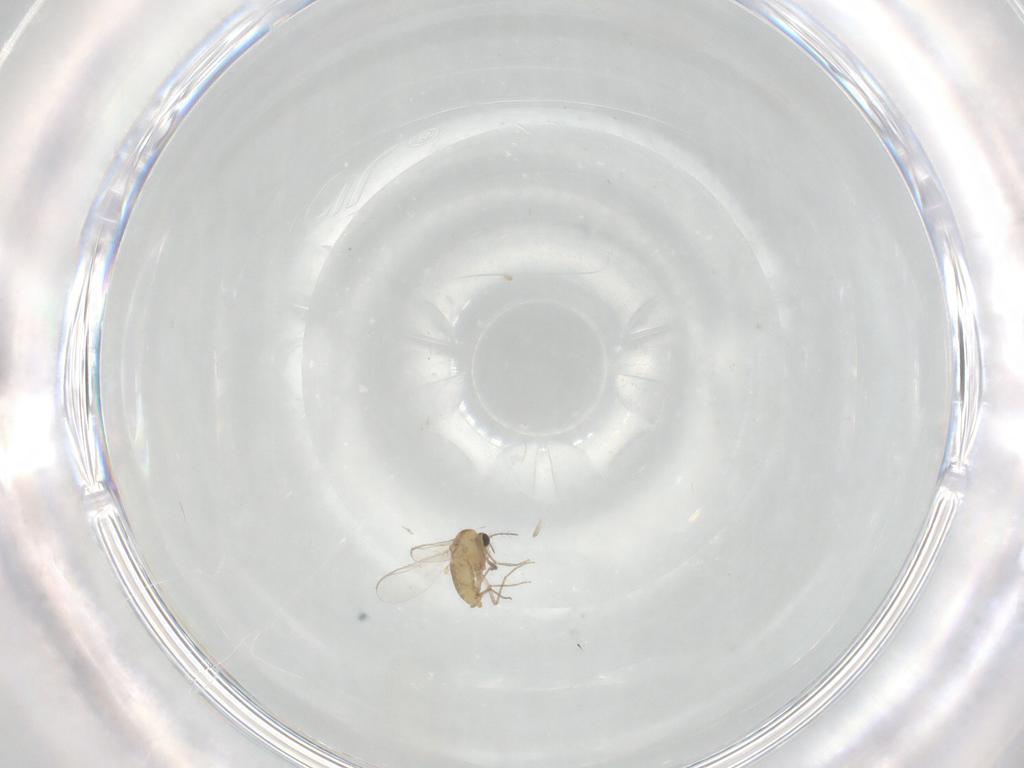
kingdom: Animalia
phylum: Arthropoda
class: Insecta
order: Diptera
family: Chironomidae
